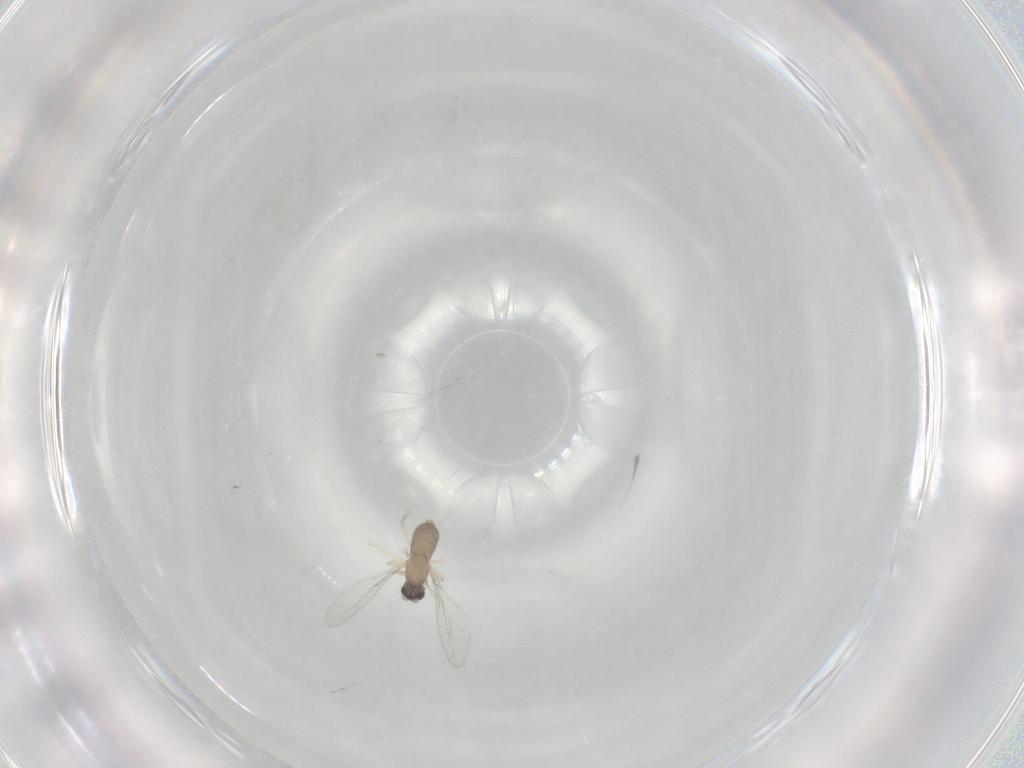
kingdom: Animalia
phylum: Arthropoda
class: Insecta
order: Diptera
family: Cecidomyiidae
